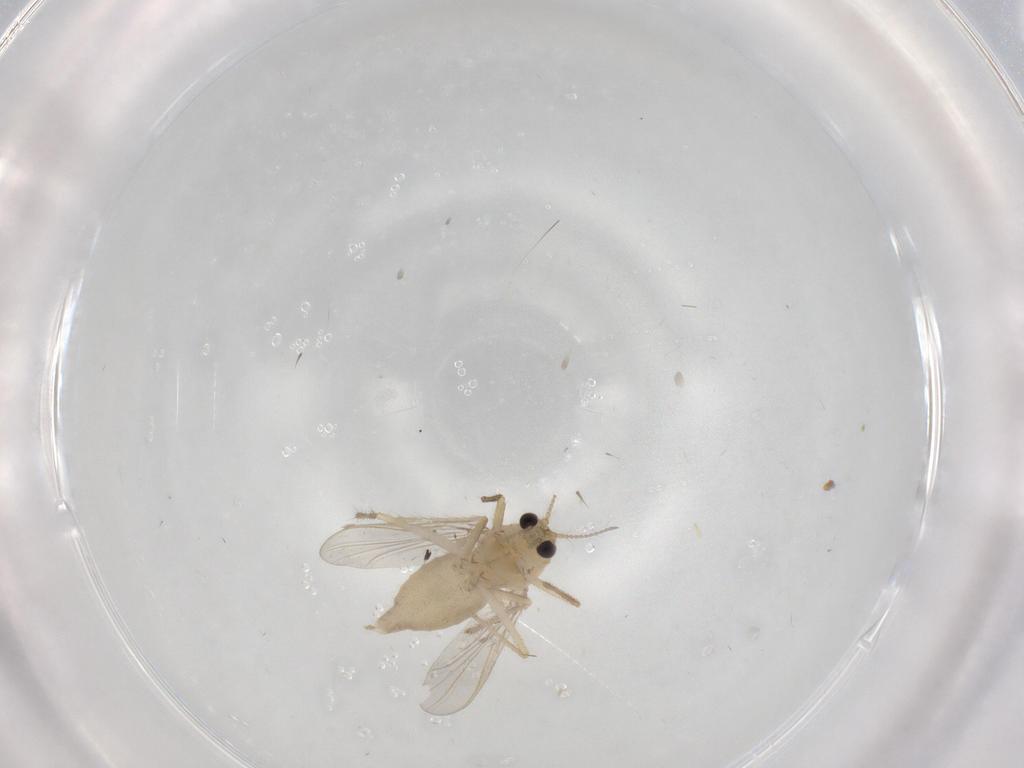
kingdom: Animalia
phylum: Arthropoda
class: Insecta
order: Diptera
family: Chironomidae
